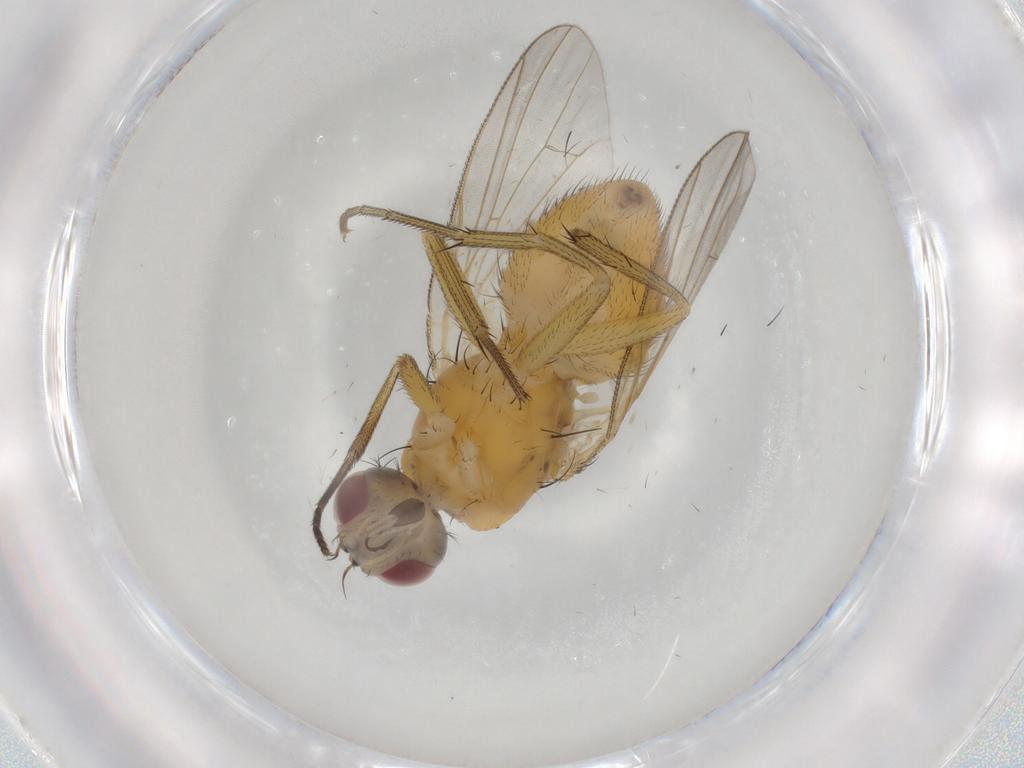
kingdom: Animalia
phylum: Arthropoda
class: Insecta
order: Diptera
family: Muscidae
